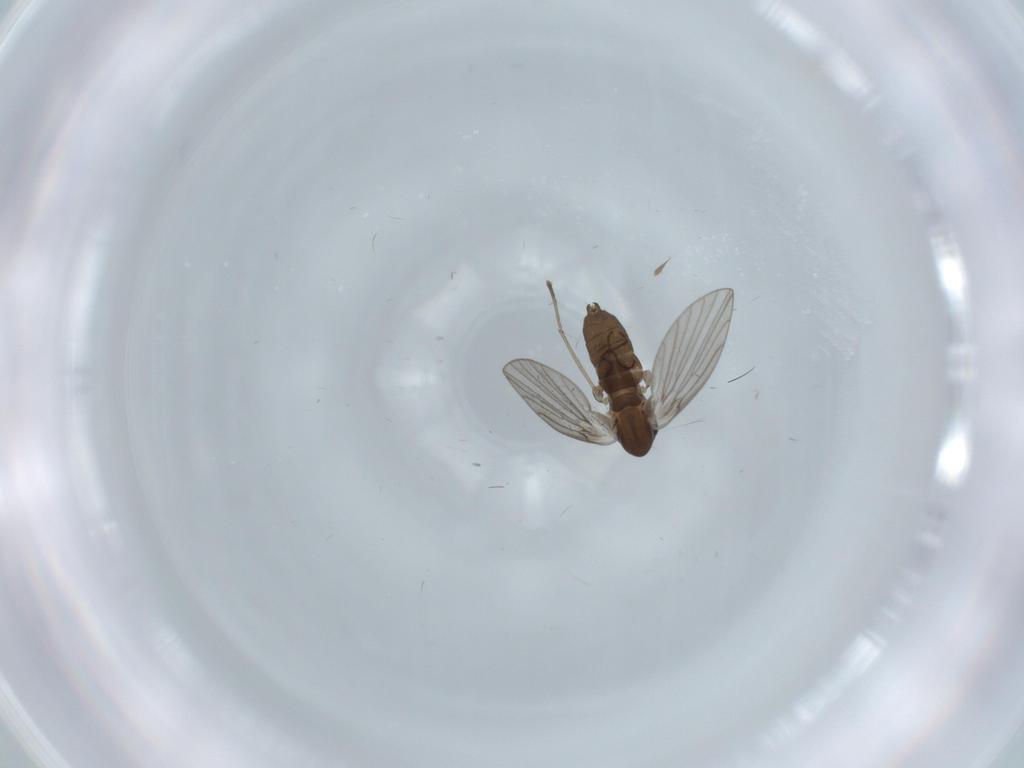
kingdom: Animalia
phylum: Arthropoda
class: Insecta
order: Diptera
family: Psychodidae
